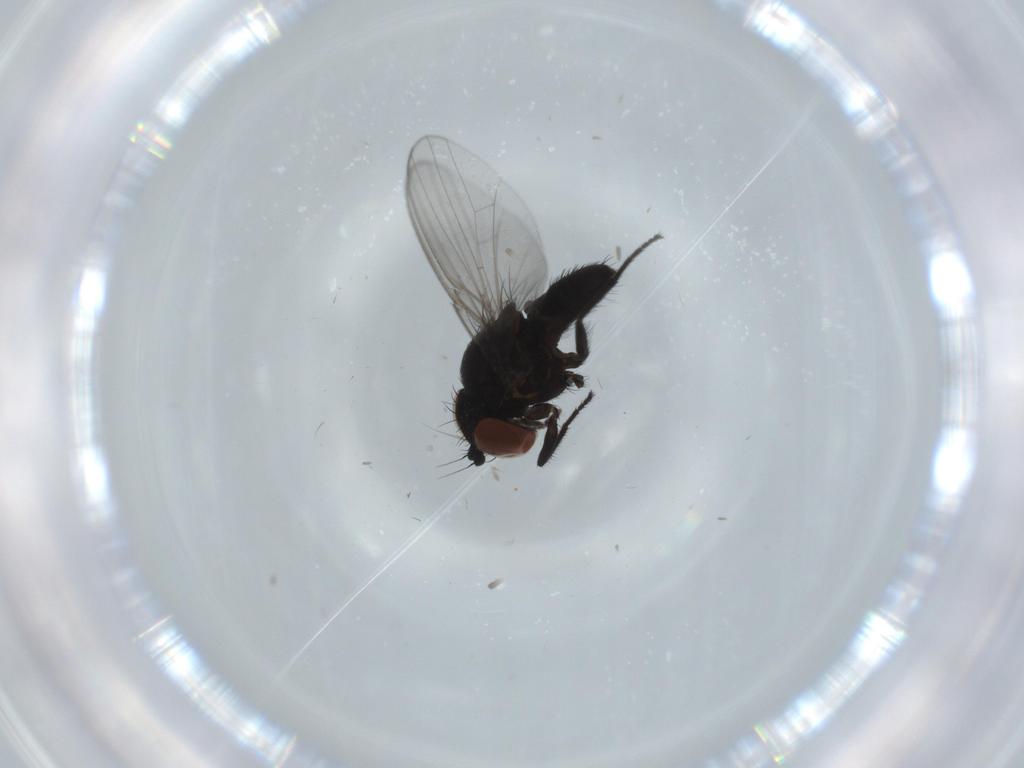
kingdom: Animalia
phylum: Arthropoda
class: Insecta
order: Diptera
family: Milichiidae
